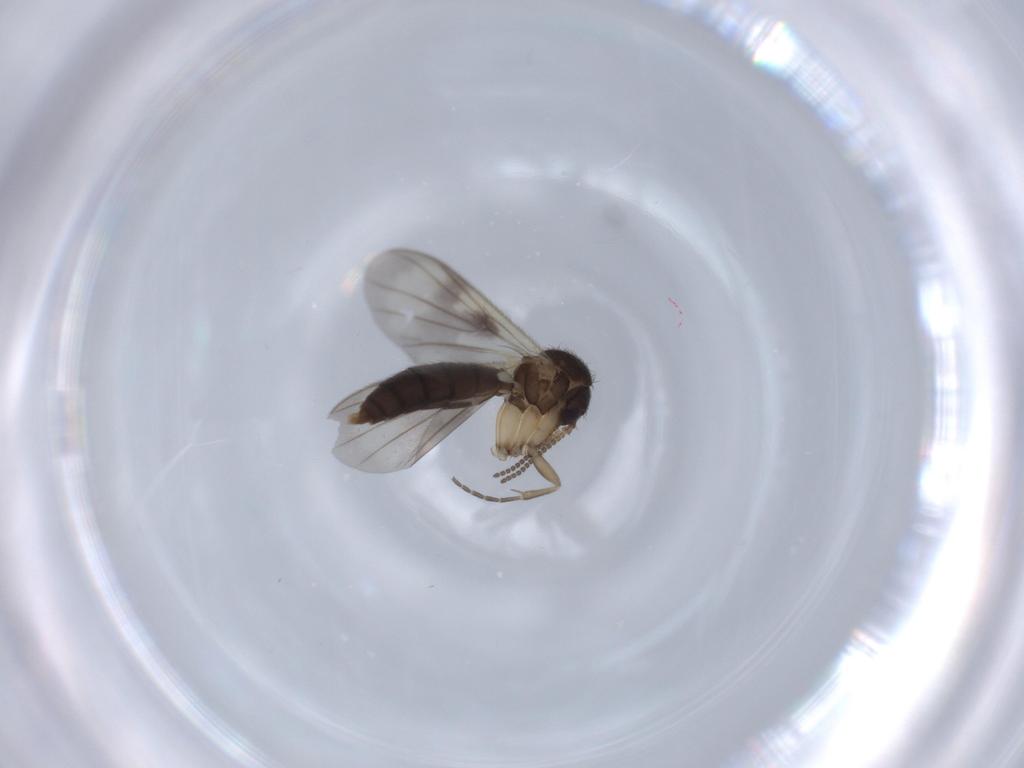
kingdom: Animalia
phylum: Arthropoda
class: Insecta
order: Diptera
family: Mycetophilidae
